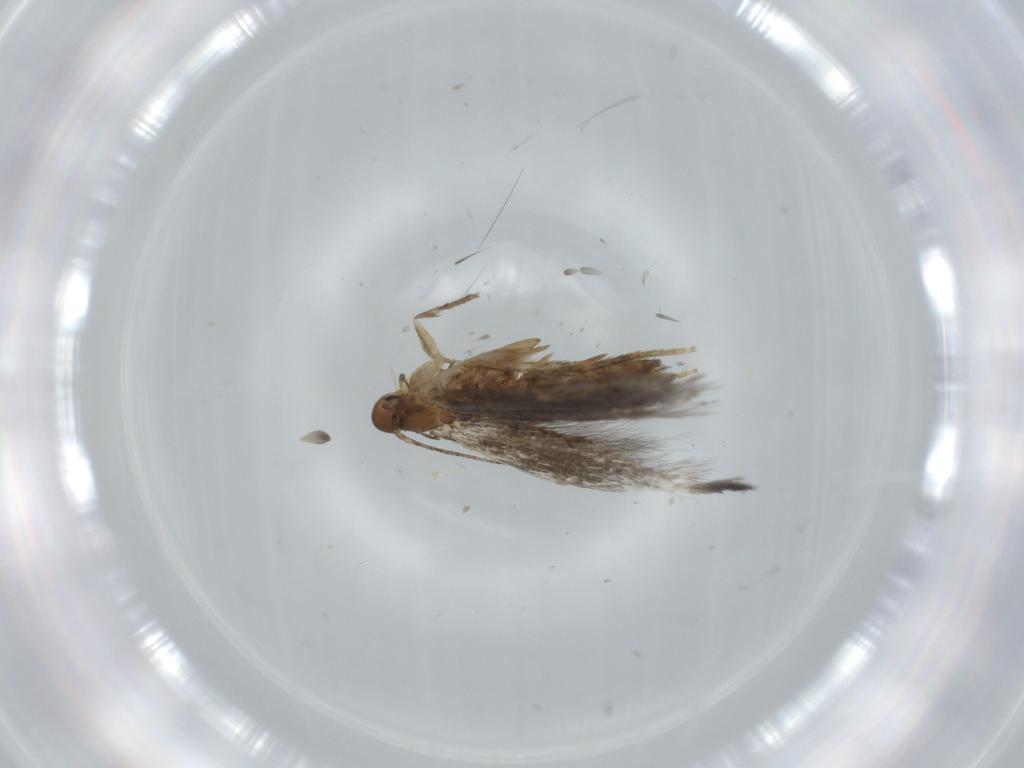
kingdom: Animalia
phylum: Arthropoda
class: Insecta
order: Lepidoptera
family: Elachistidae
